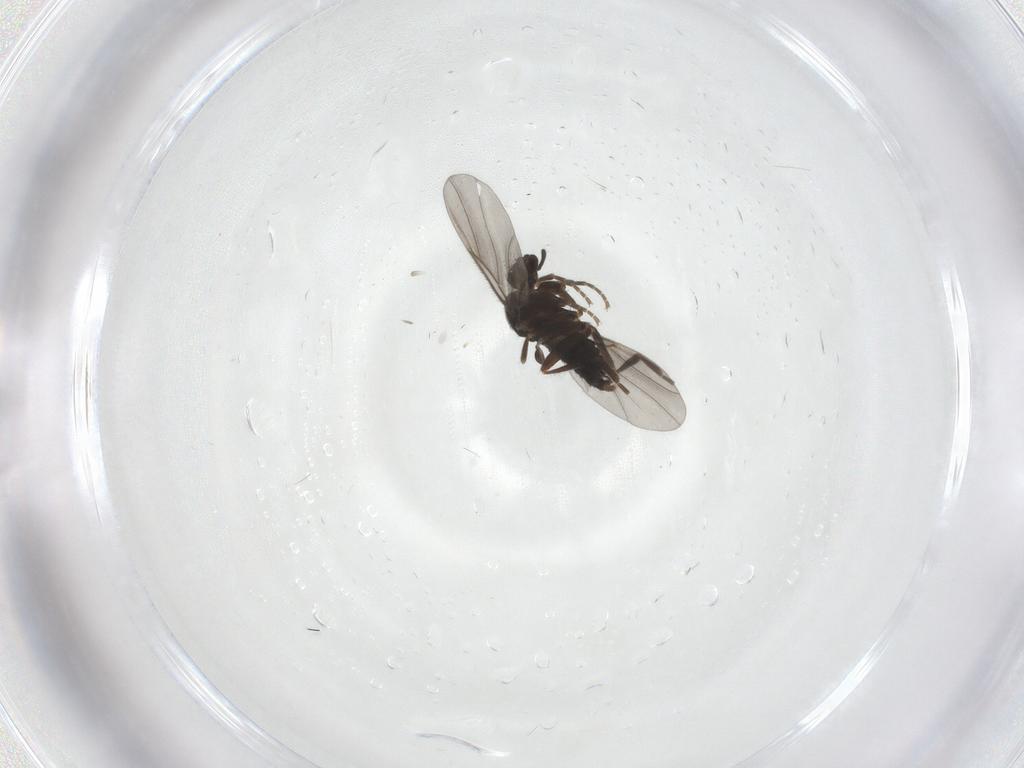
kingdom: Animalia
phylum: Arthropoda
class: Insecta
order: Diptera
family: Phoridae
